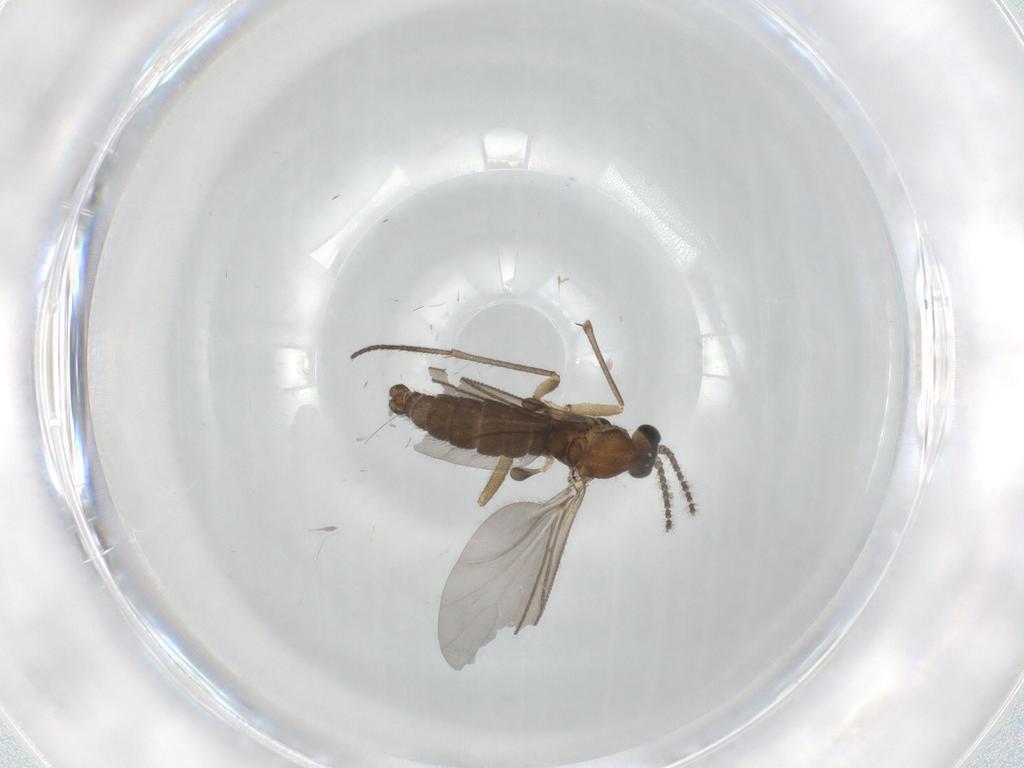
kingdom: Animalia
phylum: Arthropoda
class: Insecta
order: Diptera
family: Sciaridae
